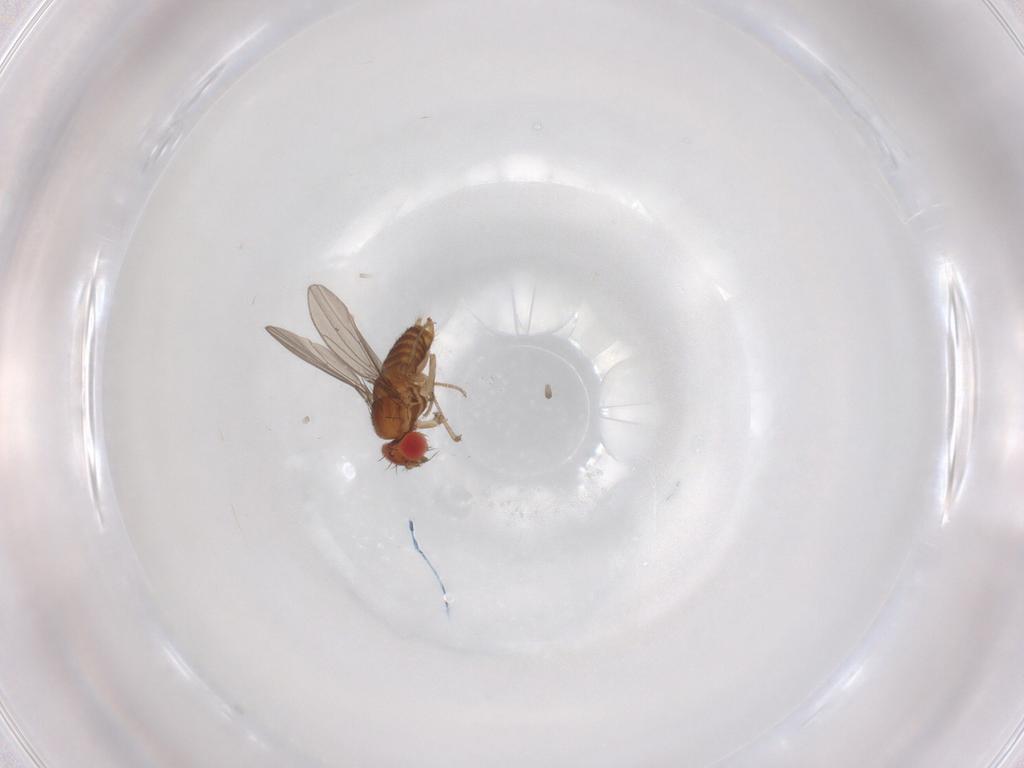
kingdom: Animalia
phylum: Arthropoda
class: Insecta
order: Diptera
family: Drosophilidae
